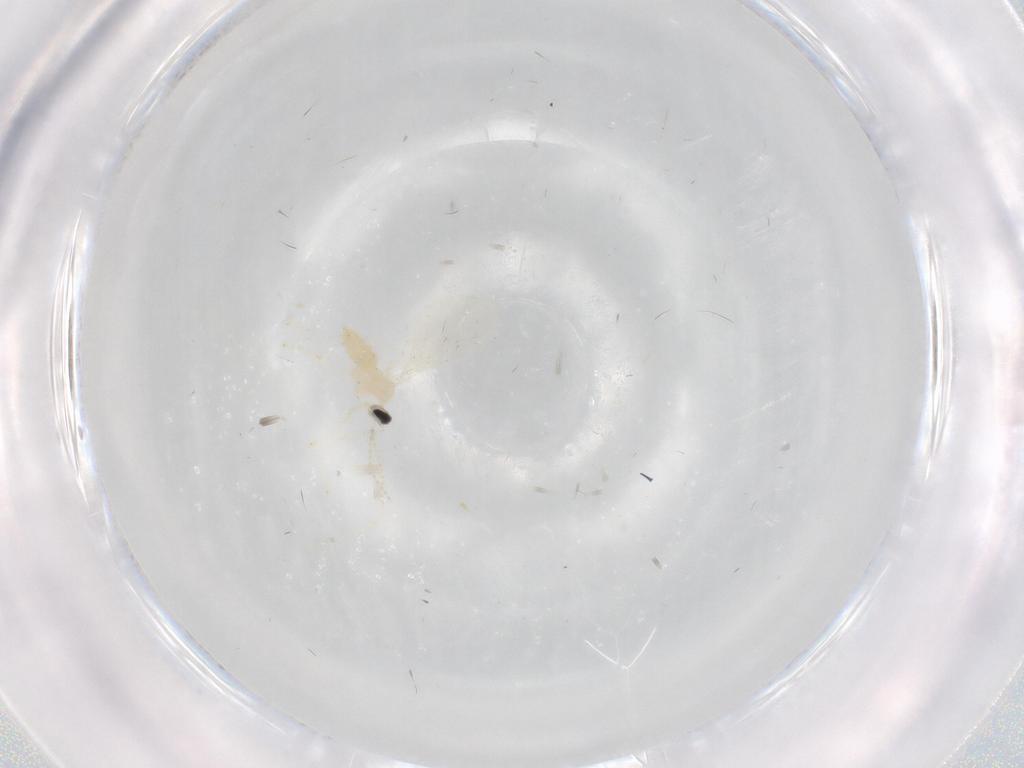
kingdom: Animalia
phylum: Arthropoda
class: Insecta
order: Diptera
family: Cecidomyiidae
